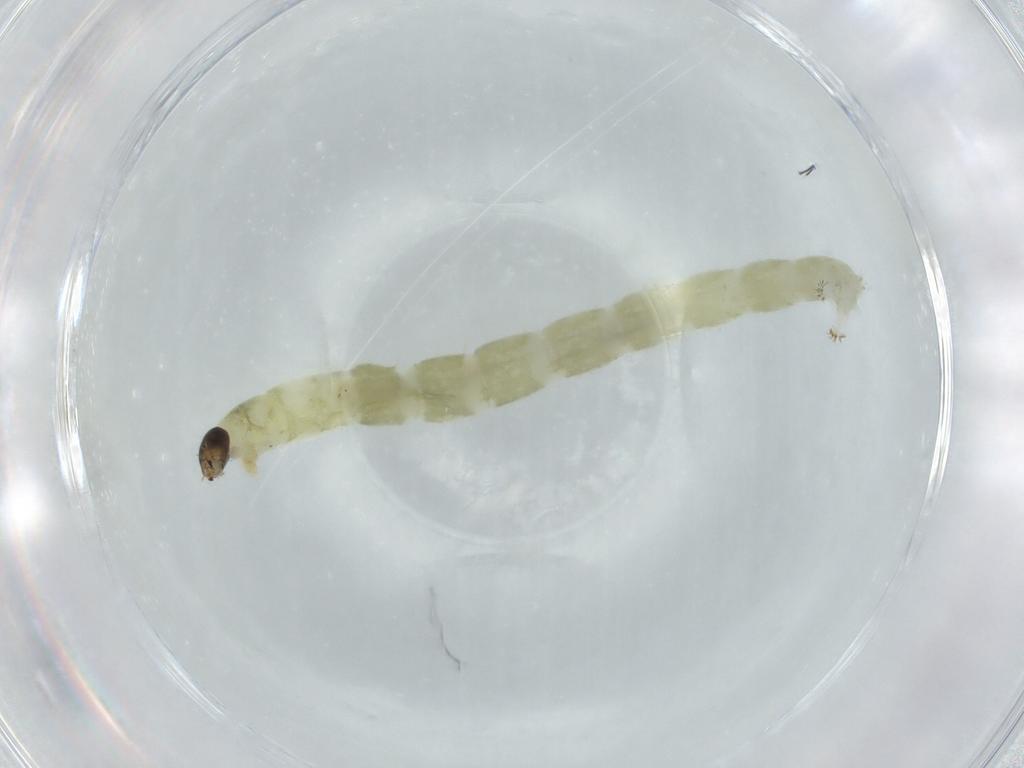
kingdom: Animalia
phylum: Arthropoda
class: Insecta
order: Diptera
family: Chironomidae
